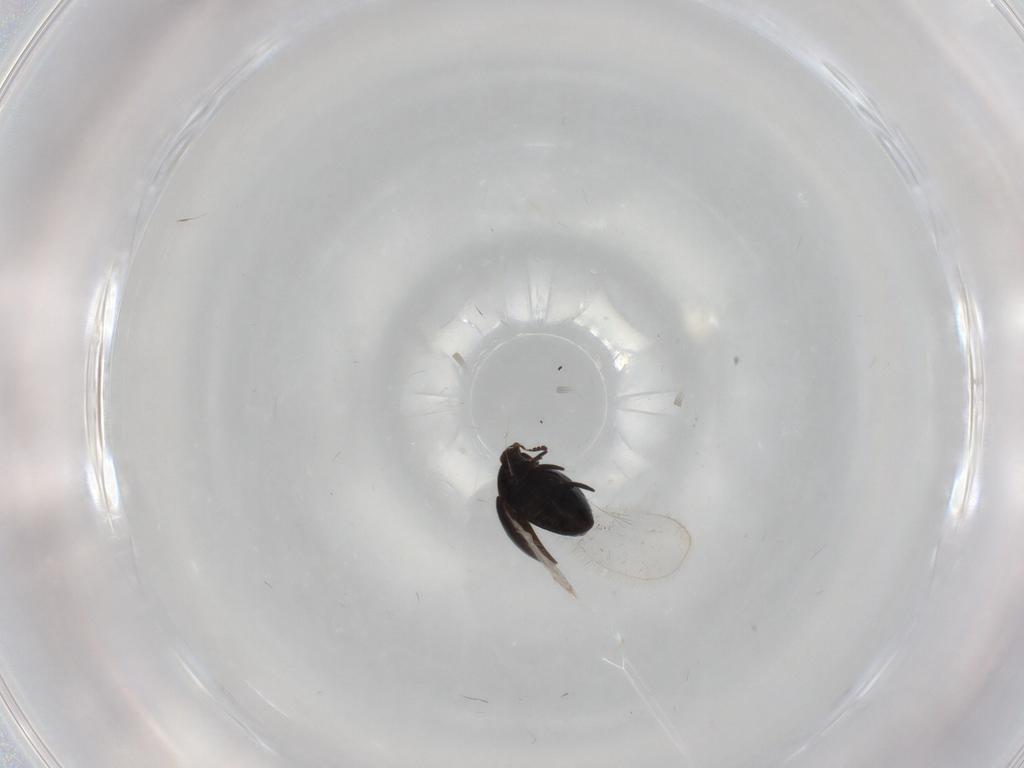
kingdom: Animalia
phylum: Arthropoda
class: Insecta
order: Coleoptera
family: Corylophidae
